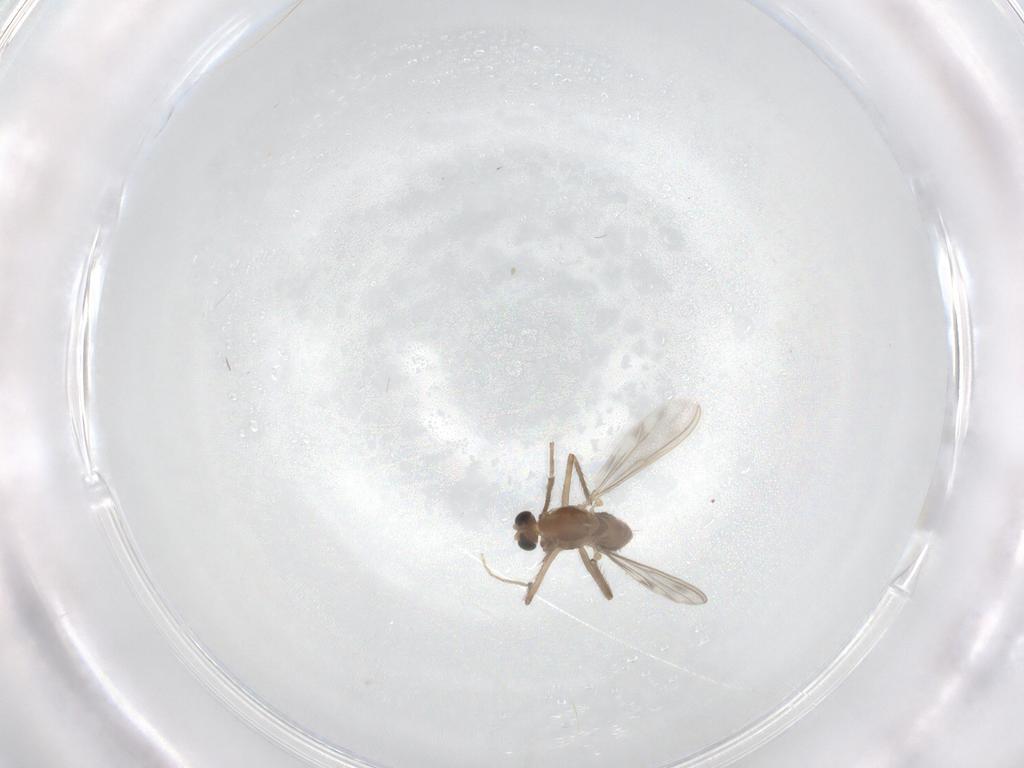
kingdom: Animalia
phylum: Arthropoda
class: Insecta
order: Diptera
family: Chironomidae
